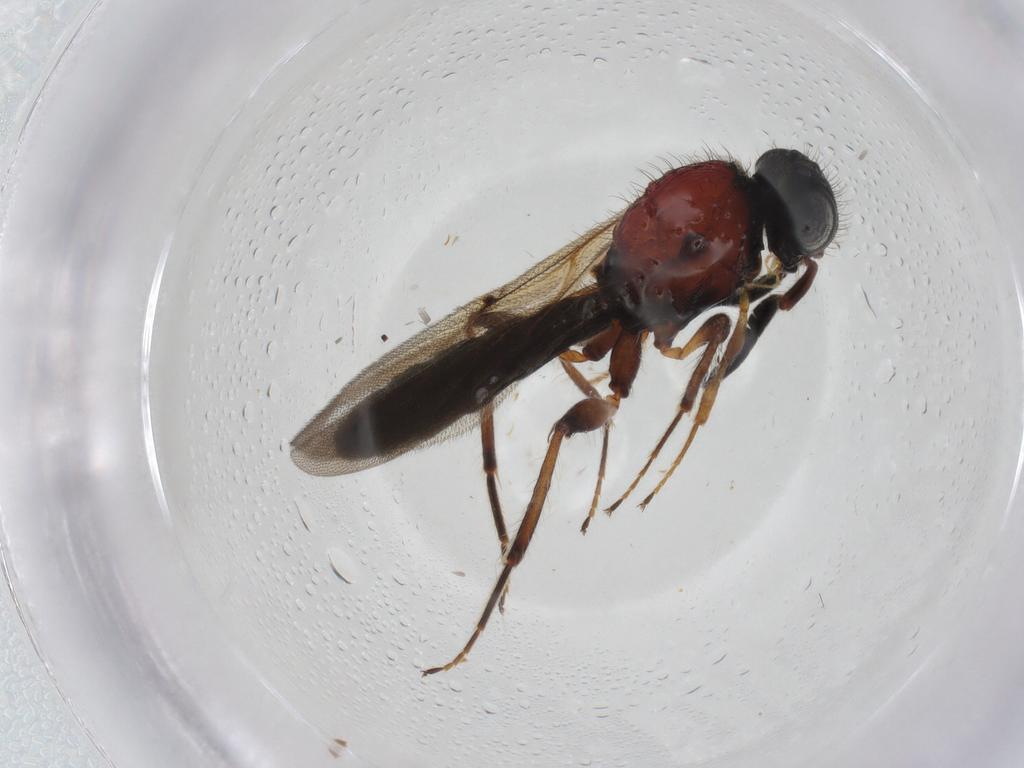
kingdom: Animalia
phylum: Arthropoda
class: Insecta
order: Hymenoptera
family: Scelionidae
